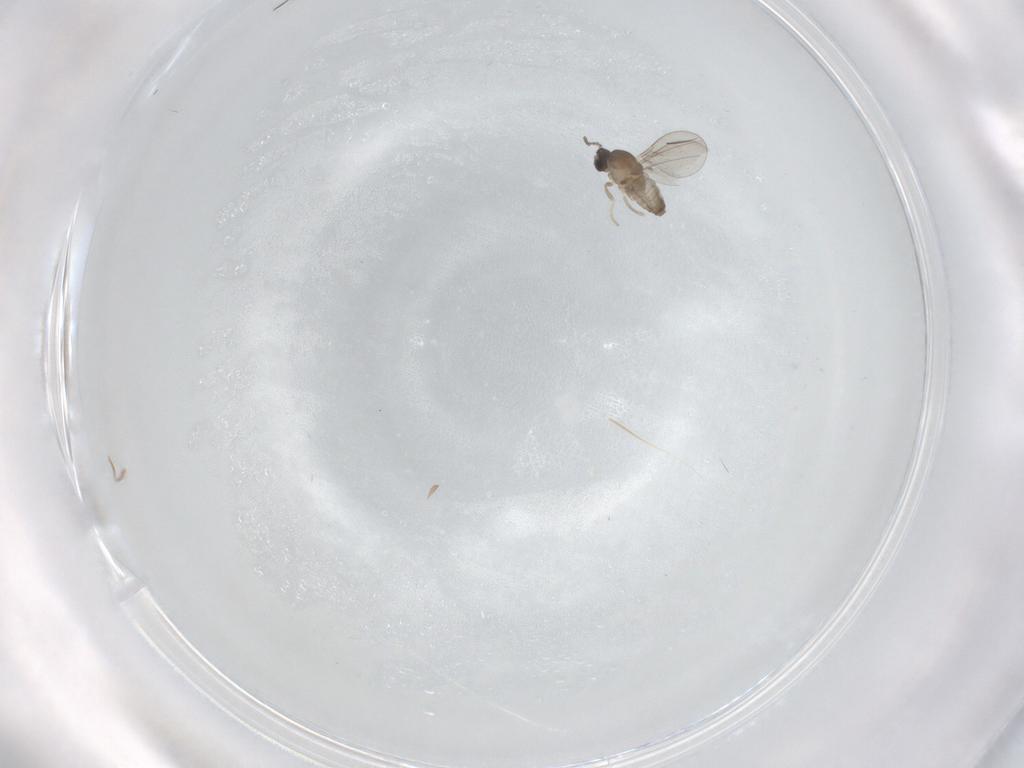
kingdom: Animalia
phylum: Arthropoda
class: Insecta
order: Diptera
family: Cecidomyiidae
